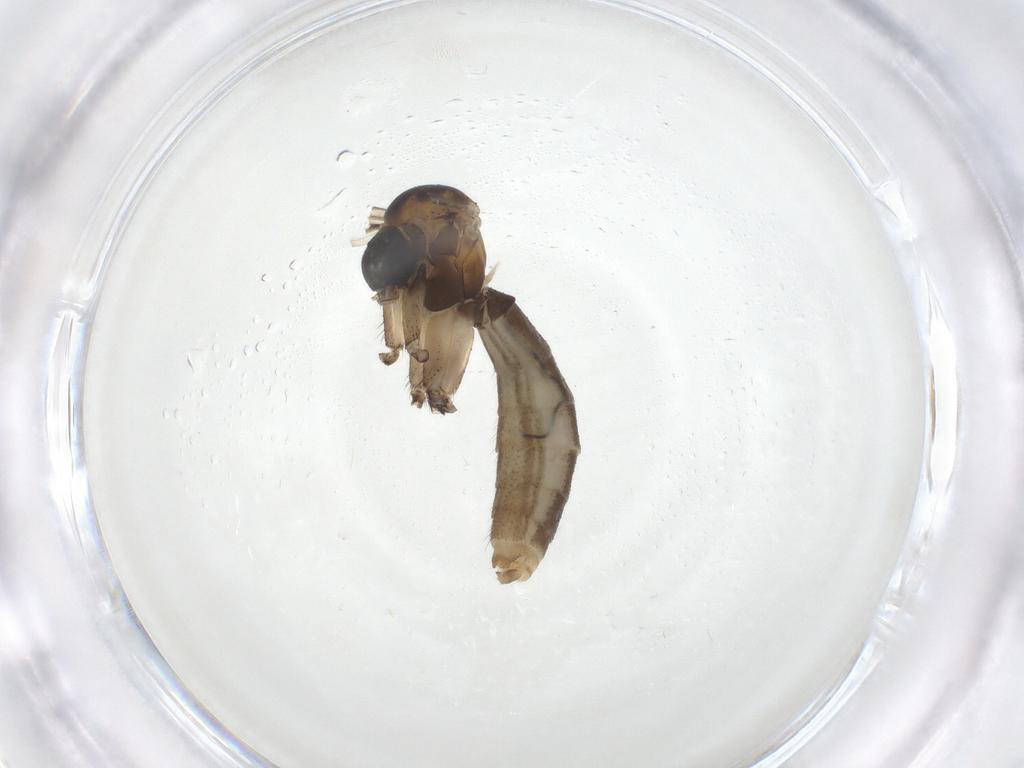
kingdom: Animalia
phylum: Arthropoda
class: Insecta
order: Diptera
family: Mycetophilidae
